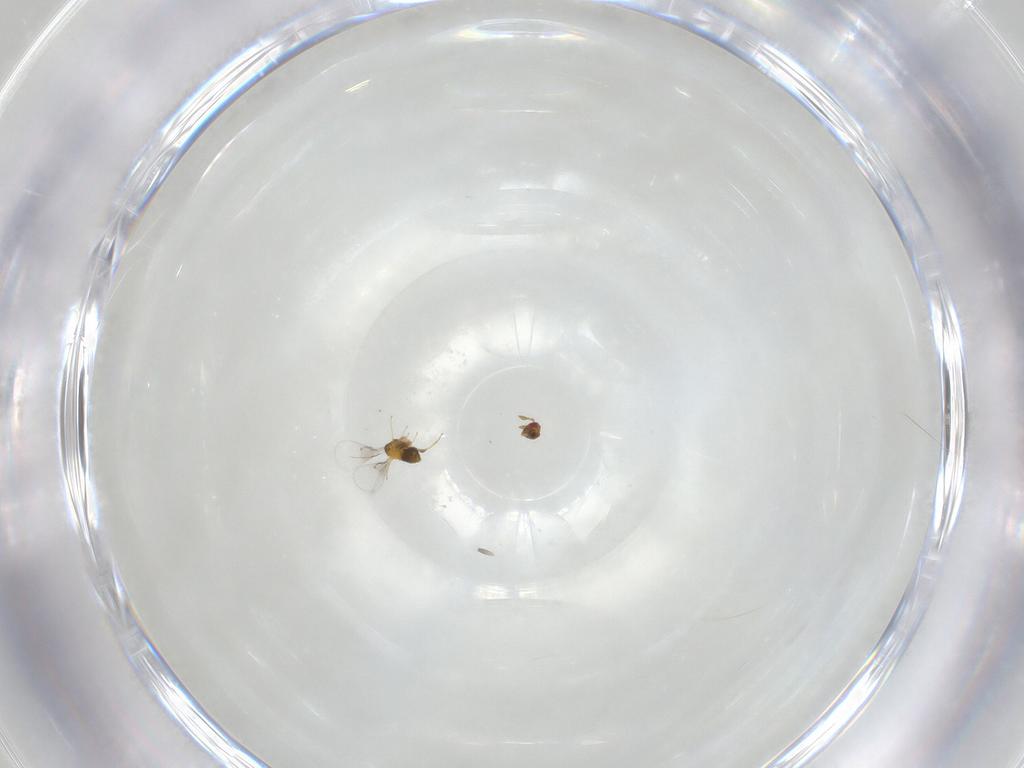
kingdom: Animalia
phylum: Arthropoda
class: Insecta
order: Hymenoptera
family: Trichogrammatidae
